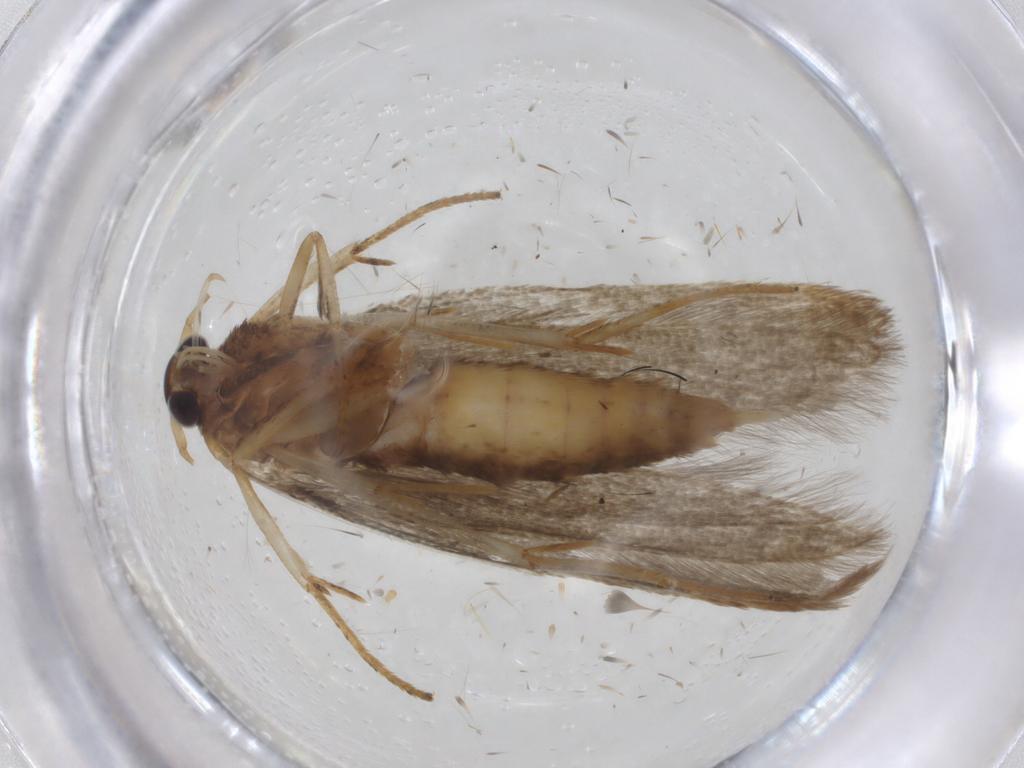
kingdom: Animalia
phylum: Arthropoda
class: Insecta
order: Lepidoptera
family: Blastobasidae
